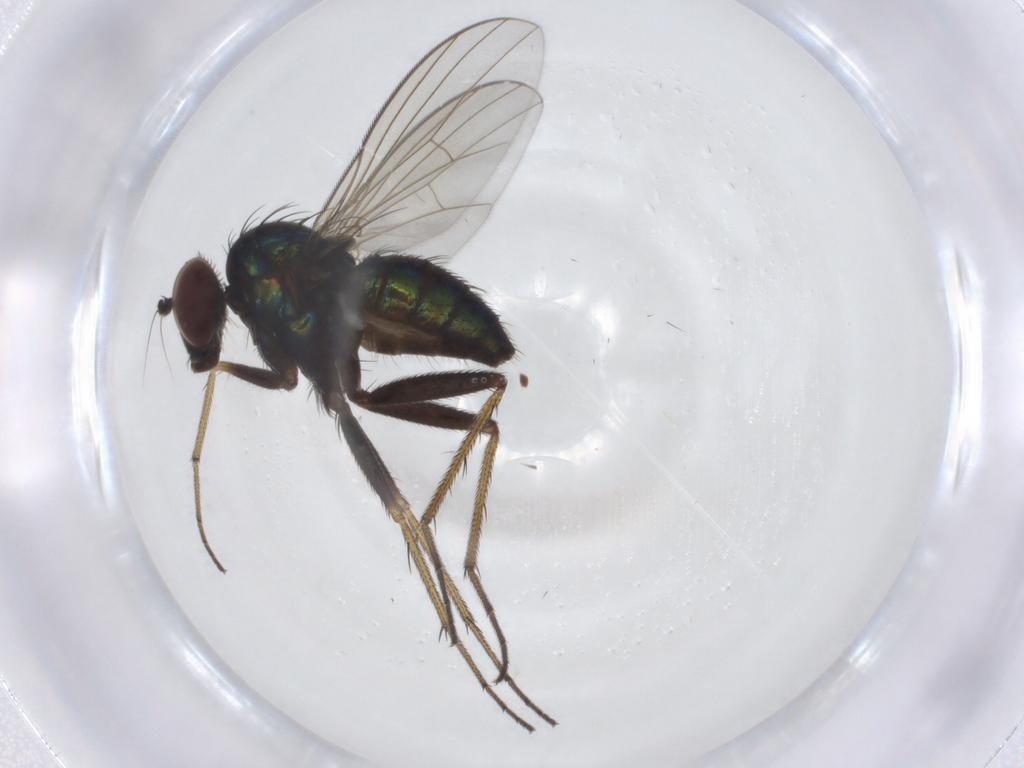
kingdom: Animalia
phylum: Arthropoda
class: Insecta
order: Diptera
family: Dolichopodidae
